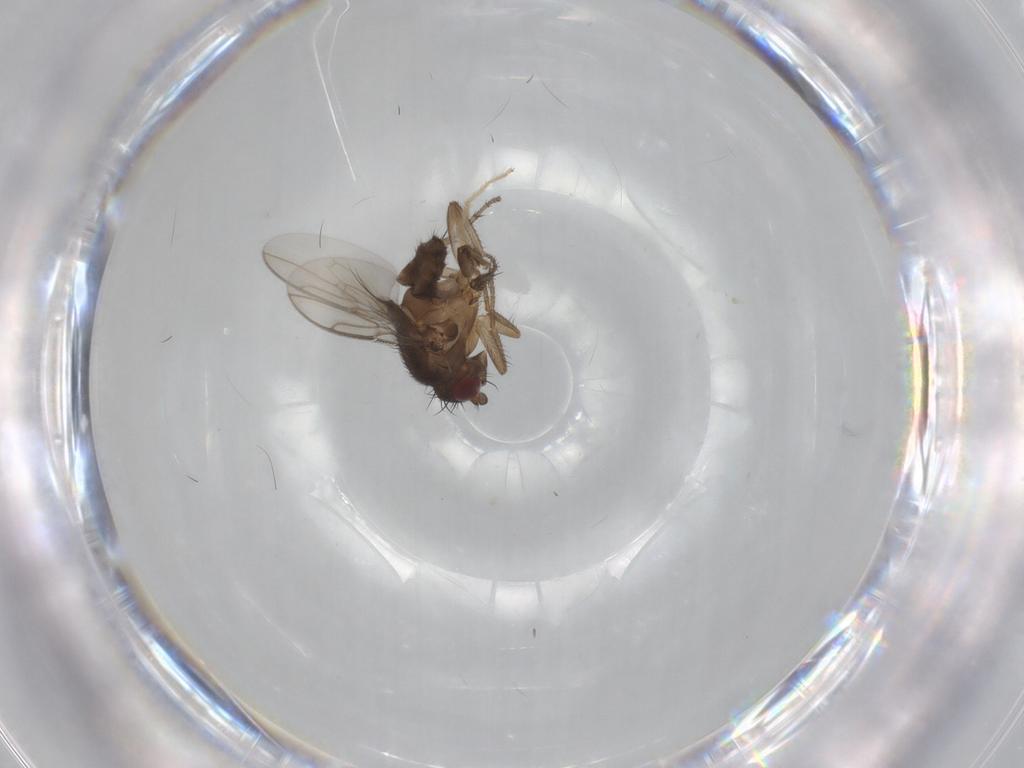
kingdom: Animalia
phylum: Arthropoda
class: Insecta
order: Diptera
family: Sphaeroceridae
